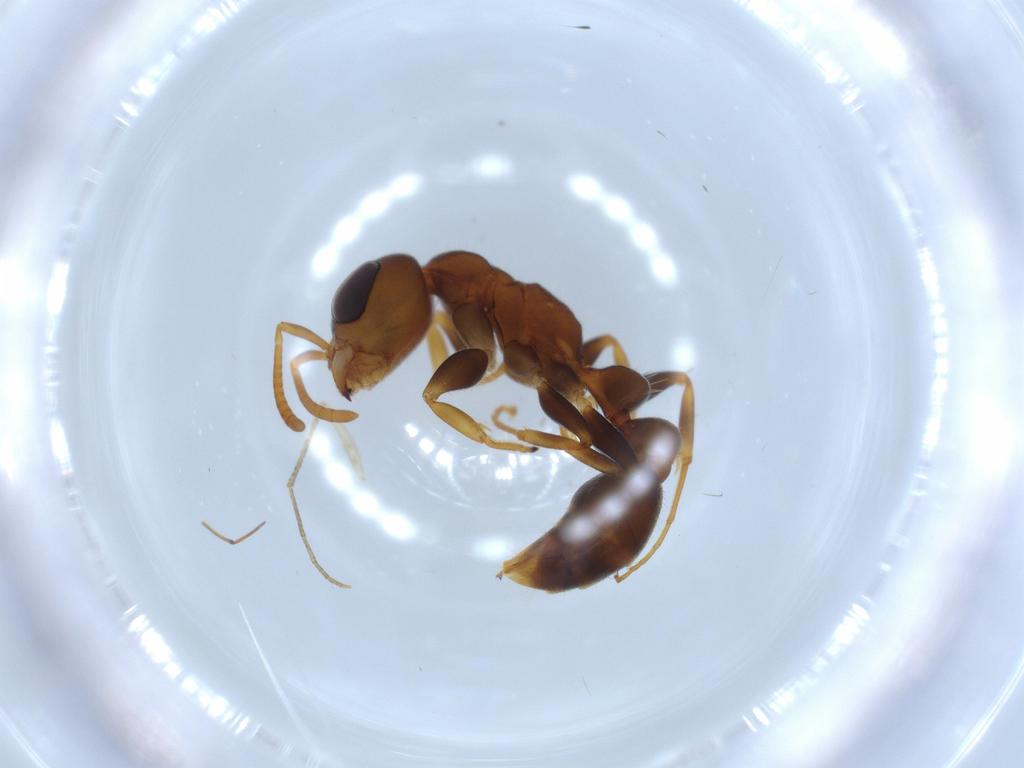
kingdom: Animalia
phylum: Arthropoda
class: Insecta
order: Hymenoptera
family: Formicidae
